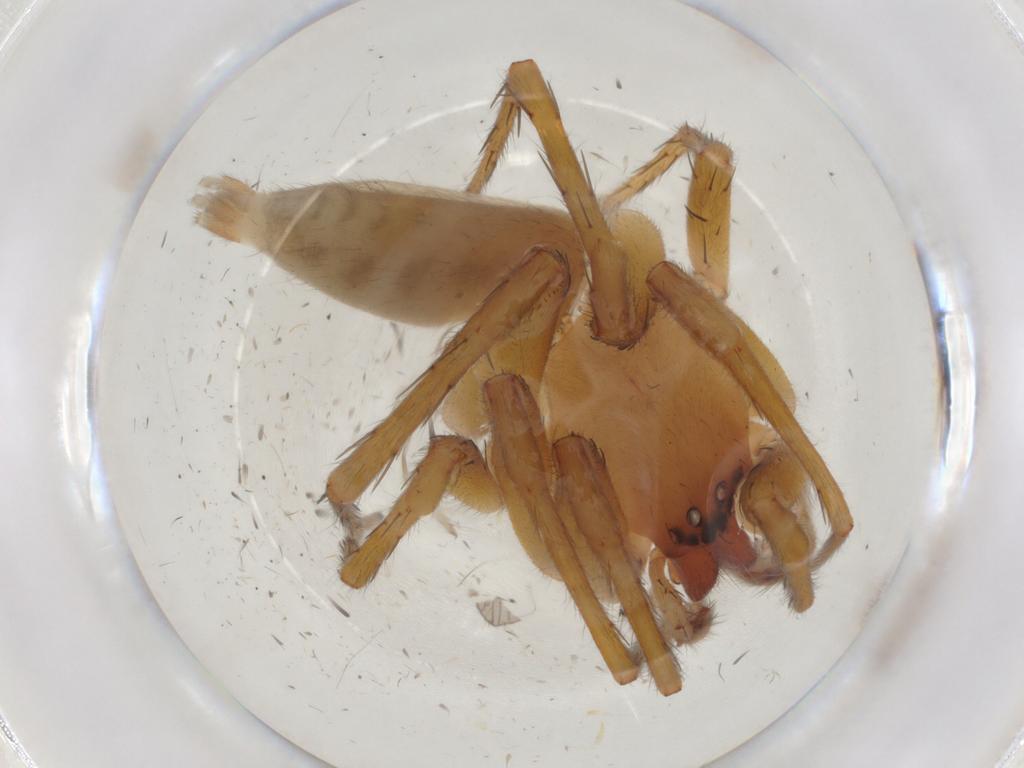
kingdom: Animalia
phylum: Arthropoda
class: Arachnida
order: Araneae
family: Clubionidae
